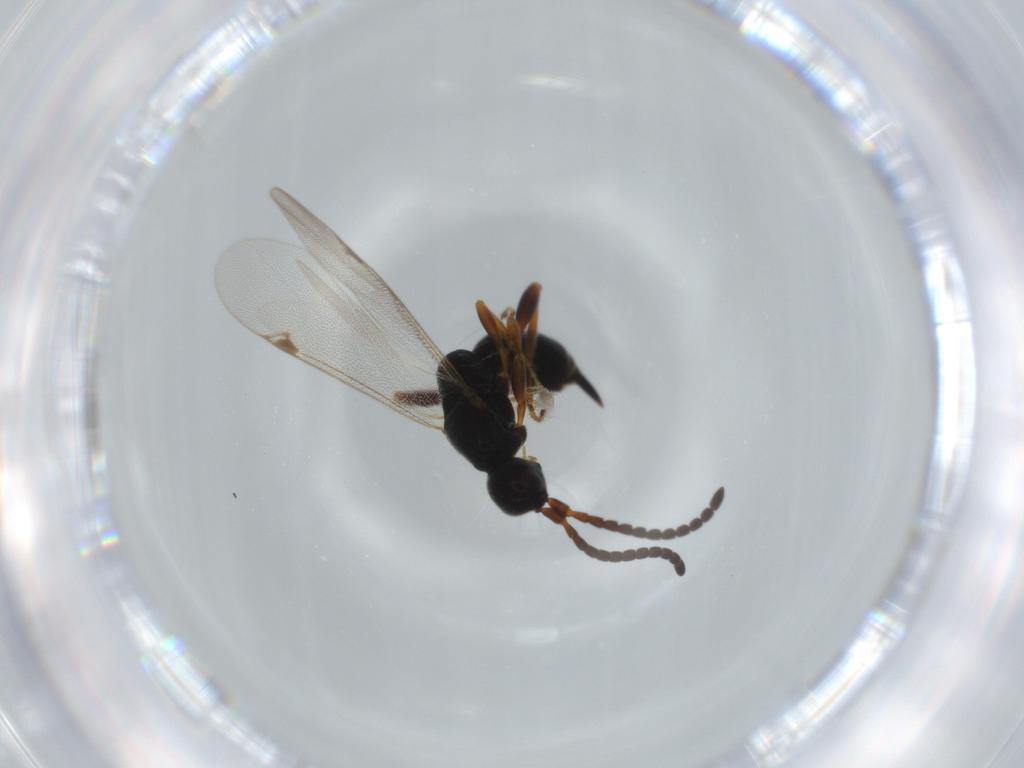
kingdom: Animalia
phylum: Arthropoda
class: Insecta
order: Hymenoptera
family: Proctotrupidae
